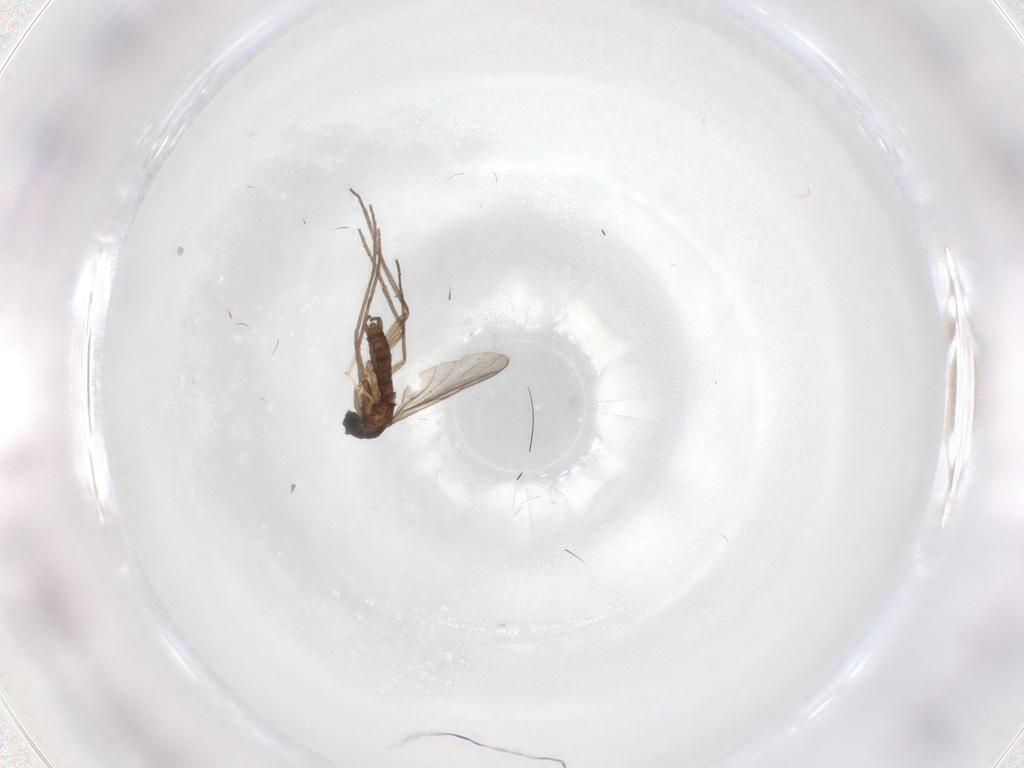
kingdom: Animalia
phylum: Arthropoda
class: Insecta
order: Diptera
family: Sciaridae
